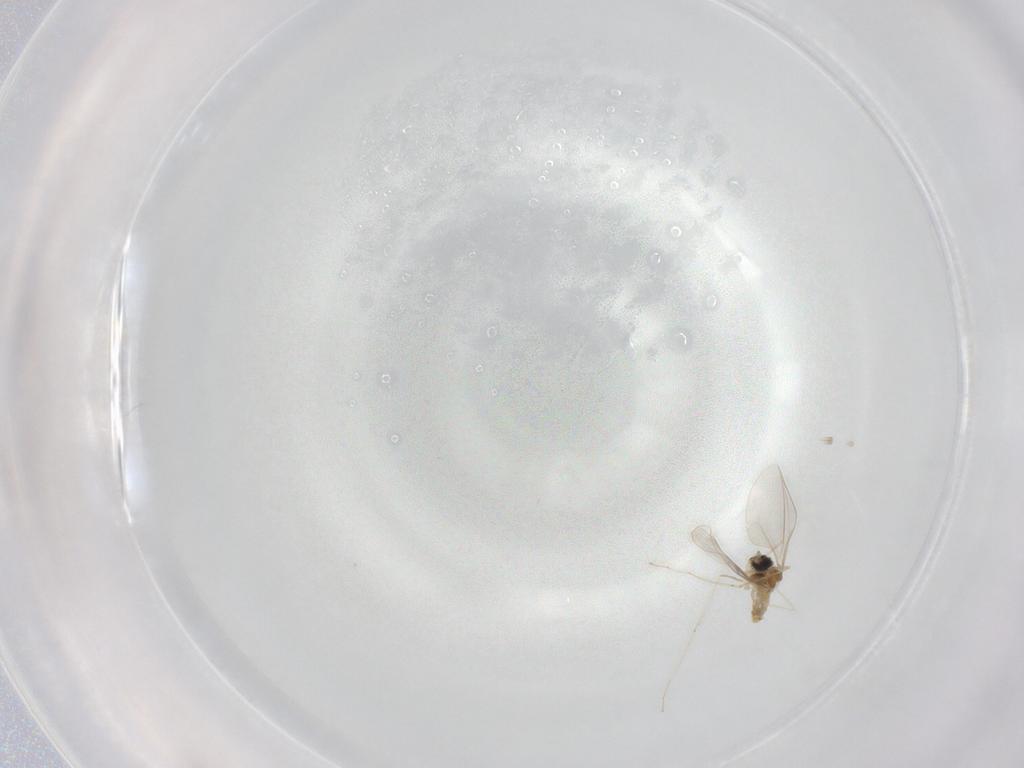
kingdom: Animalia
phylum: Arthropoda
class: Insecta
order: Diptera
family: Cecidomyiidae
